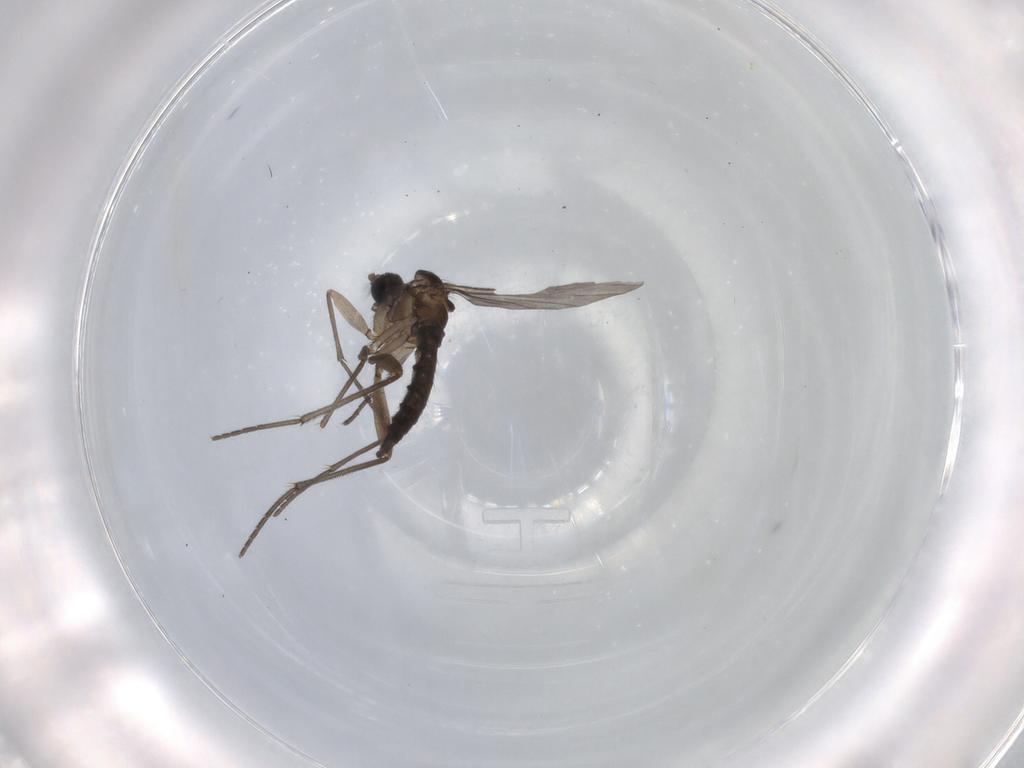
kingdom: Animalia
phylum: Arthropoda
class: Insecta
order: Diptera
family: Sciaridae
